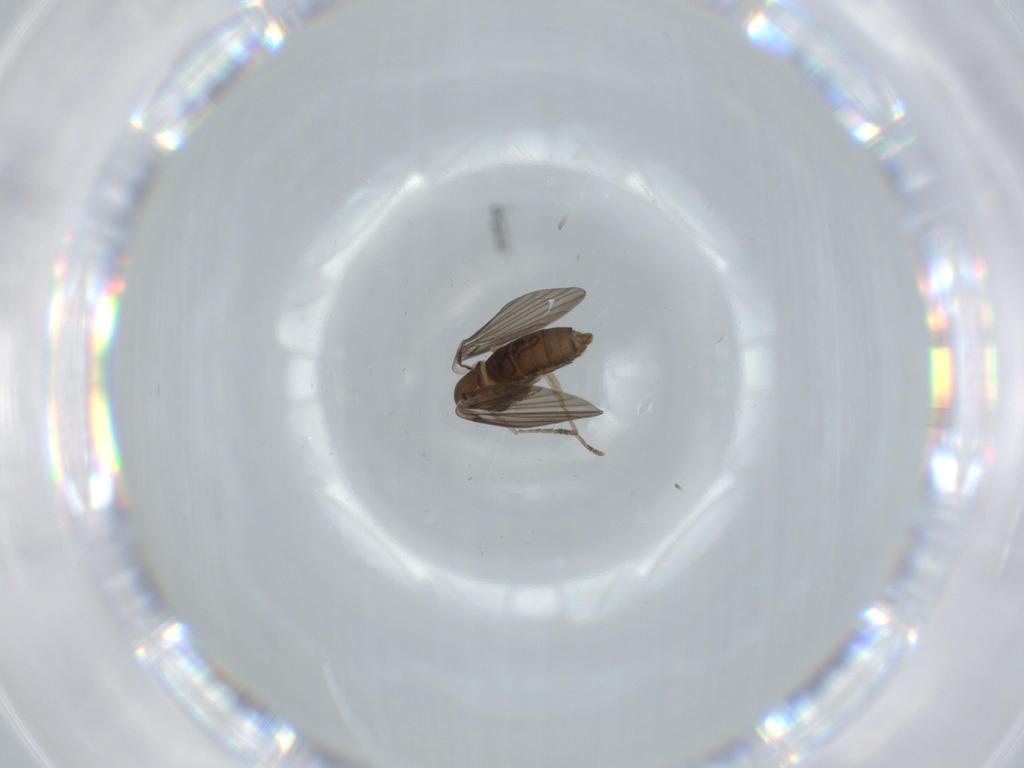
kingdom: Animalia
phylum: Arthropoda
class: Insecta
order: Diptera
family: Psychodidae
